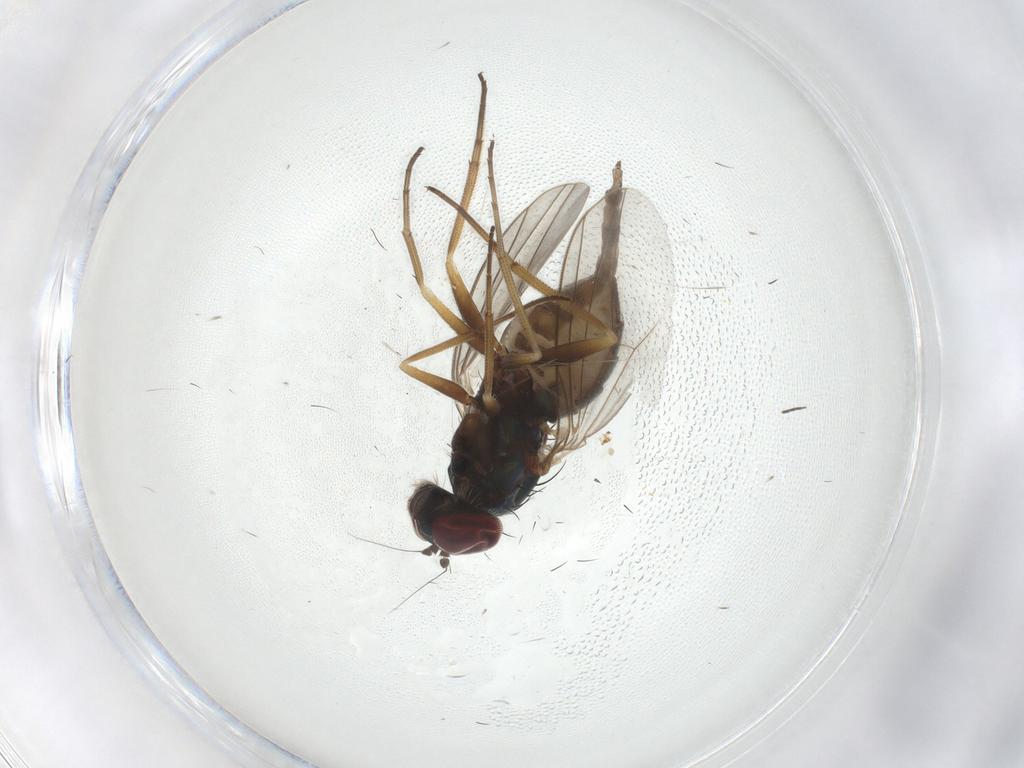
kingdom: Animalia
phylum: Arthropoda
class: Insecta
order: Diptera
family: Dolichopodidae
